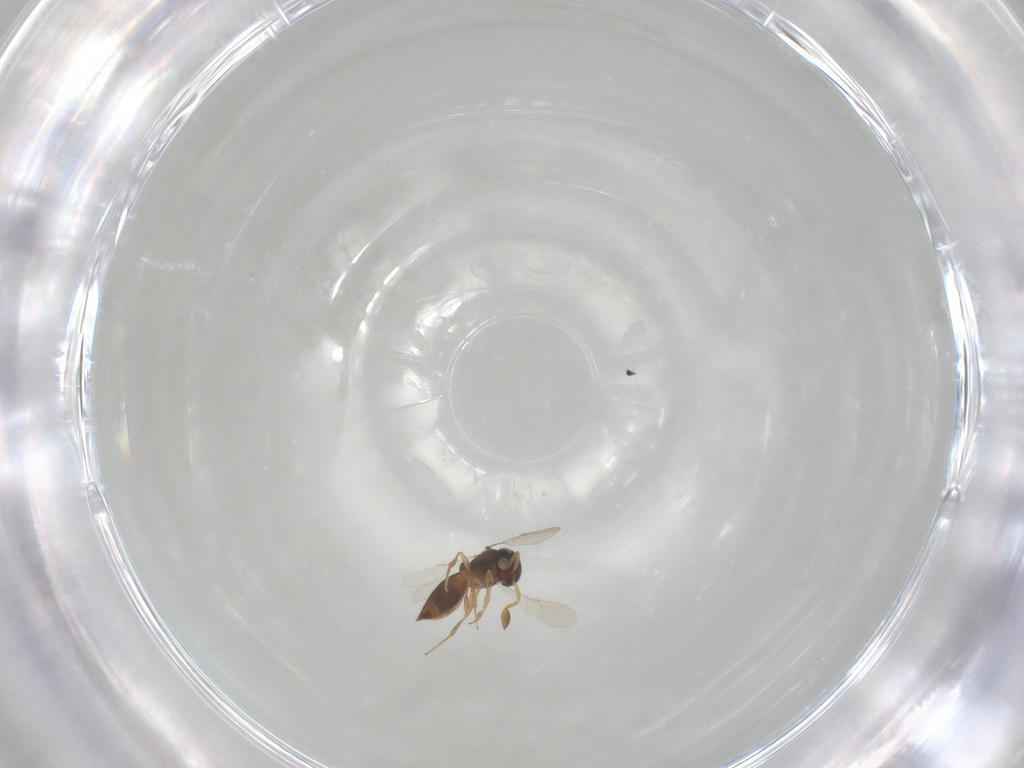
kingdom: Animalia
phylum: Arthropoda
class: Insecta
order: Hymenoptera
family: Scelionidae
